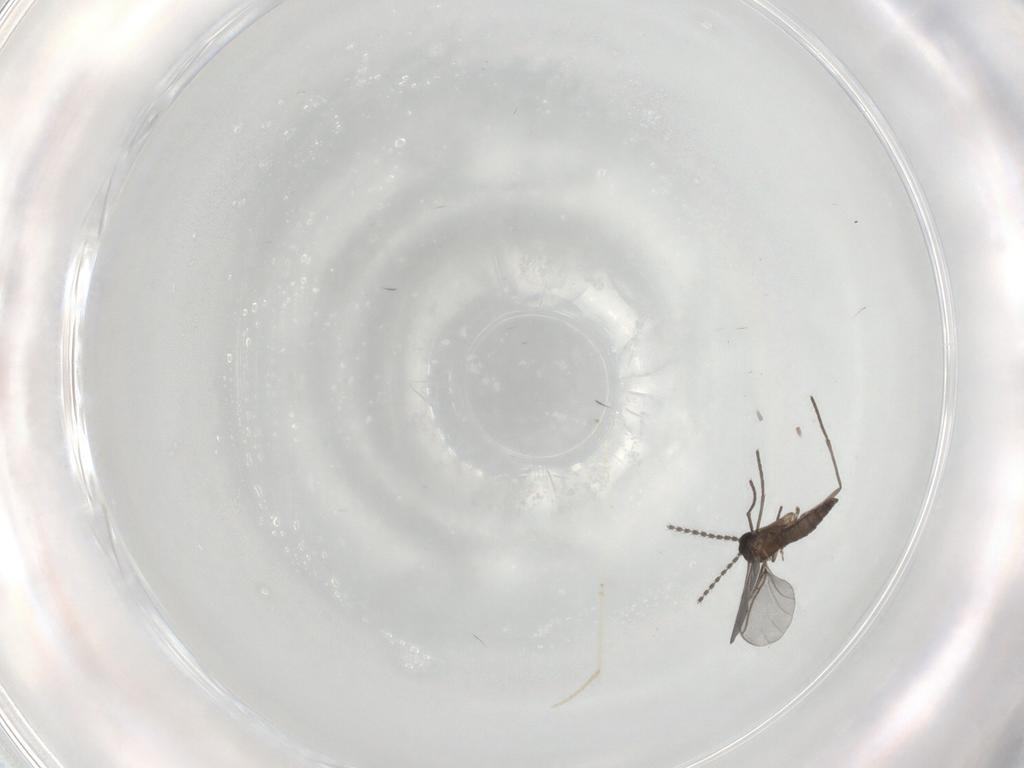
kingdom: Animalia
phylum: Arthropoda
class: Insecta
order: Diptera
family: Sciaridae
